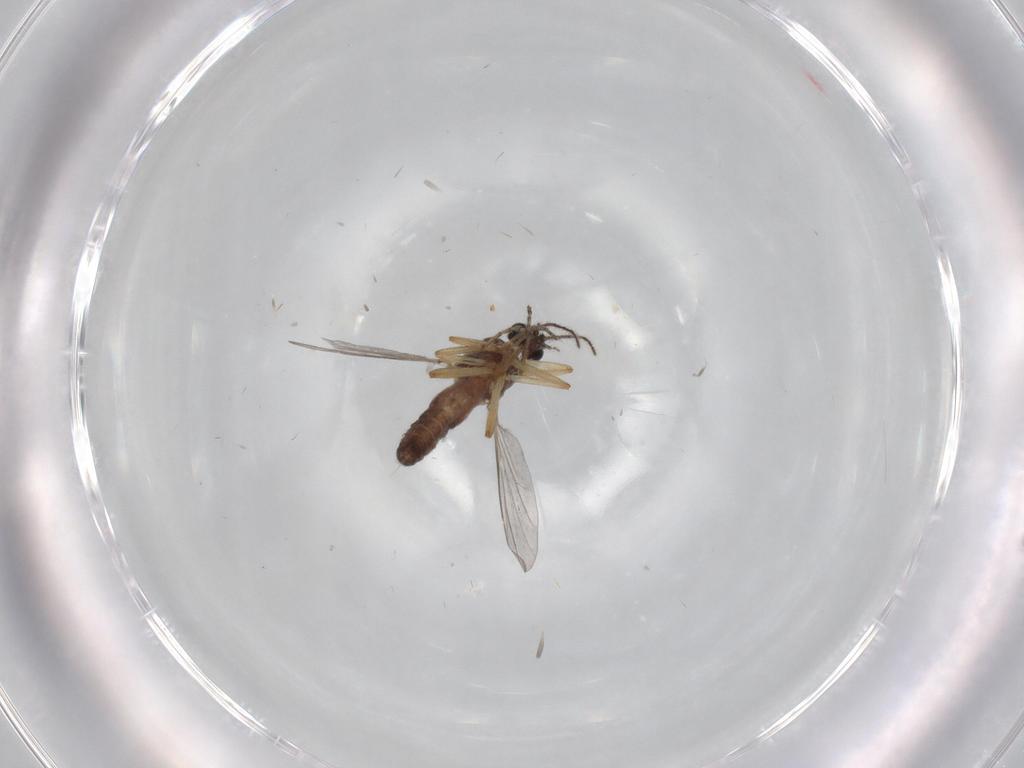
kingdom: Animalia
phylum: Arthropoda
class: Insecta
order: Diptera
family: Ceratopogonidae
